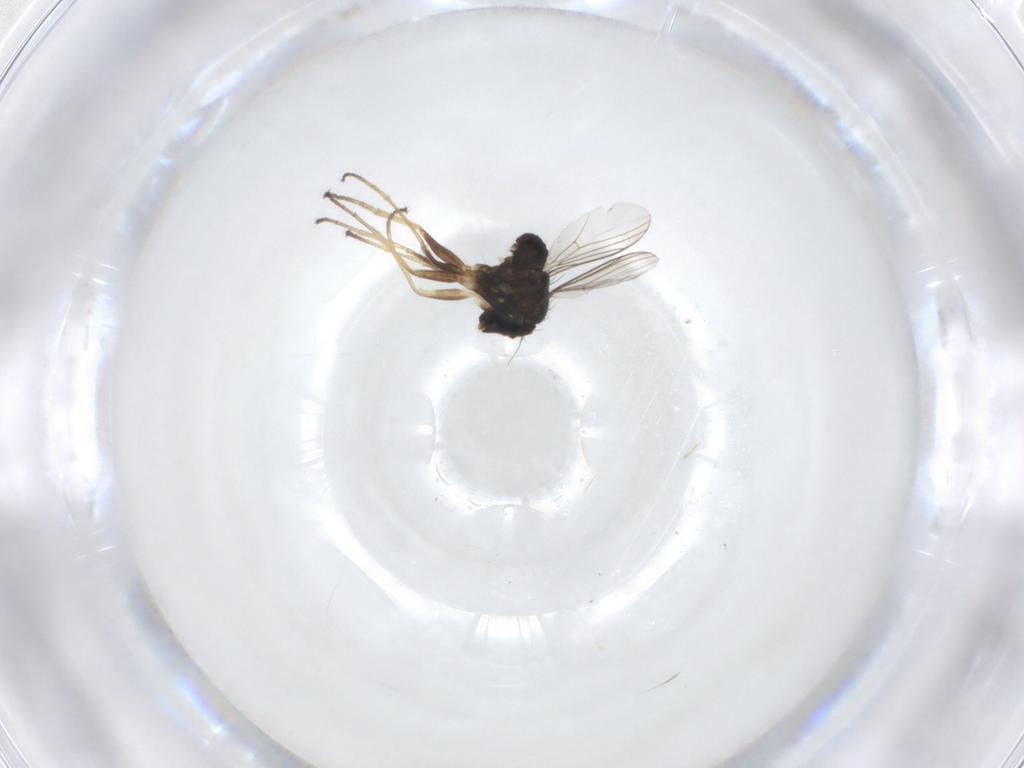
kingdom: Animalia
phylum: Arthropoda
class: Insecta
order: Diptera
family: Dolichopodidae
